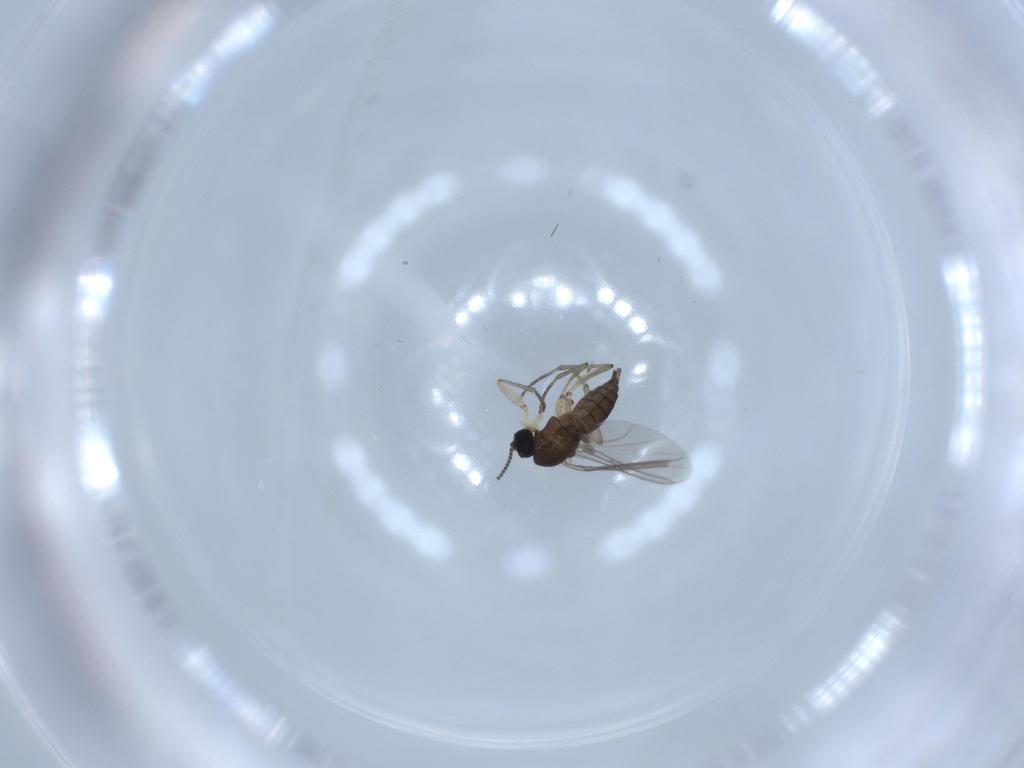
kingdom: Animalia
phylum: Arthropoda
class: Insecta
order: Diptera
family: Sciaridae
